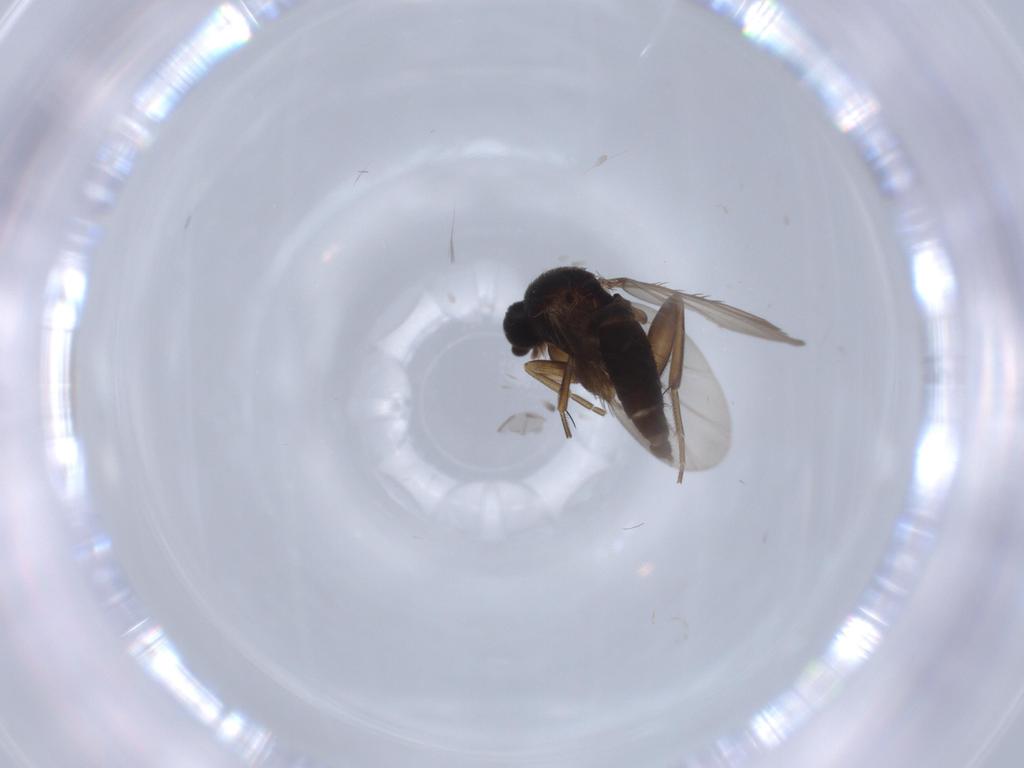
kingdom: Animalia
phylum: Arthropoda
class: Insecta
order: Diptera
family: Phoridae
